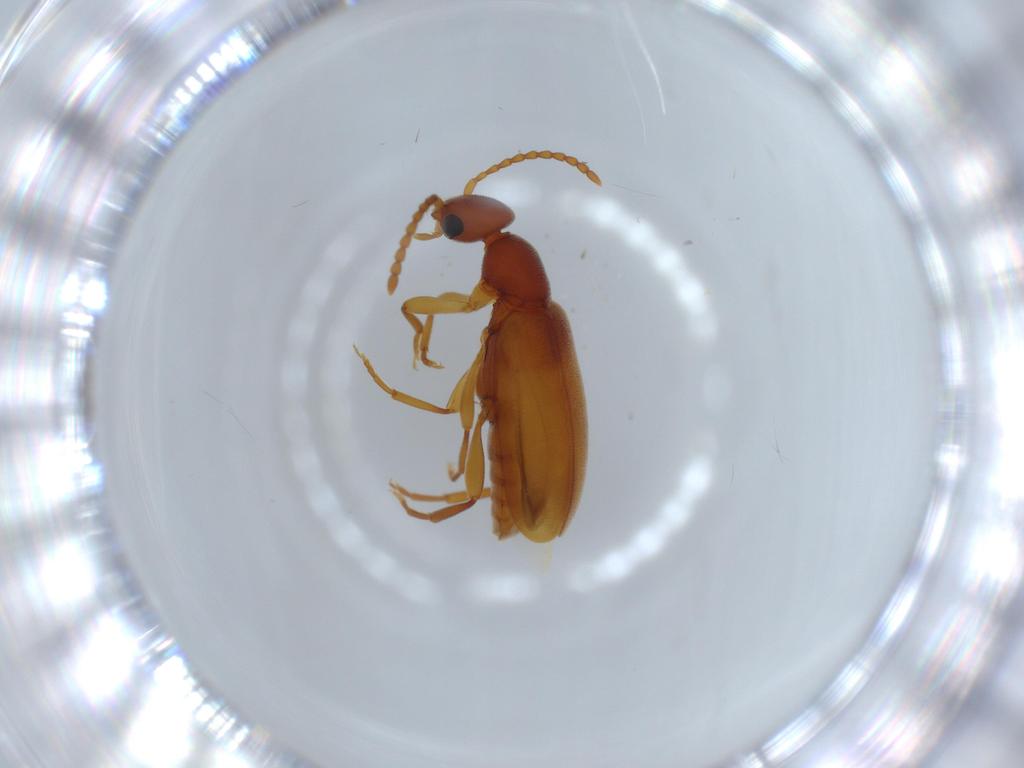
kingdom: Animalia
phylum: Arthropoda
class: Insecta
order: Coleoptera
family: Anthicidae
